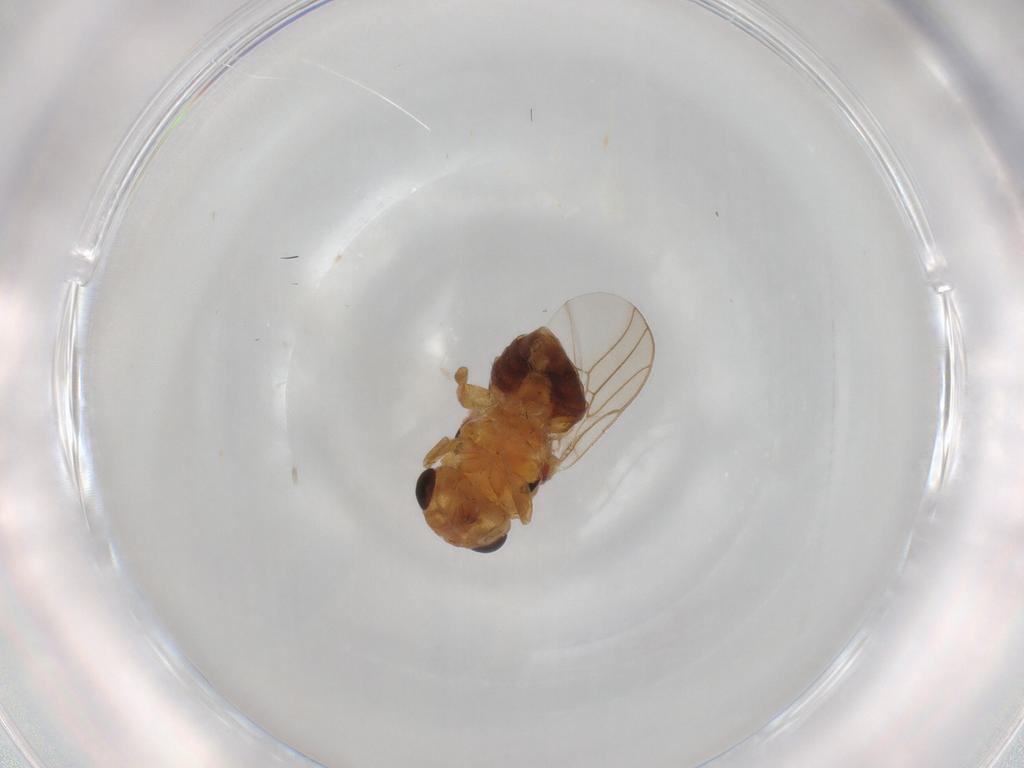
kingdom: Animalia
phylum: Arthropoda
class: Insecta
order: Diptera
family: Chloropidae
